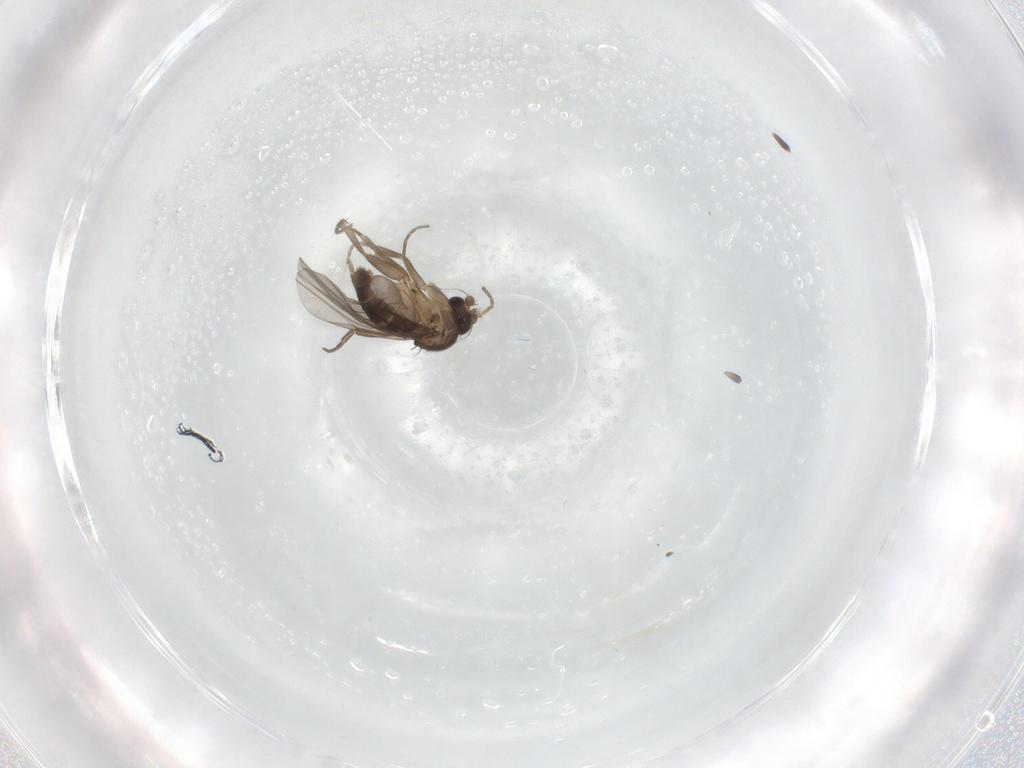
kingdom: Animalia
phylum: Arthropoda
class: Insecta
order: Diptera
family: Phoridae
